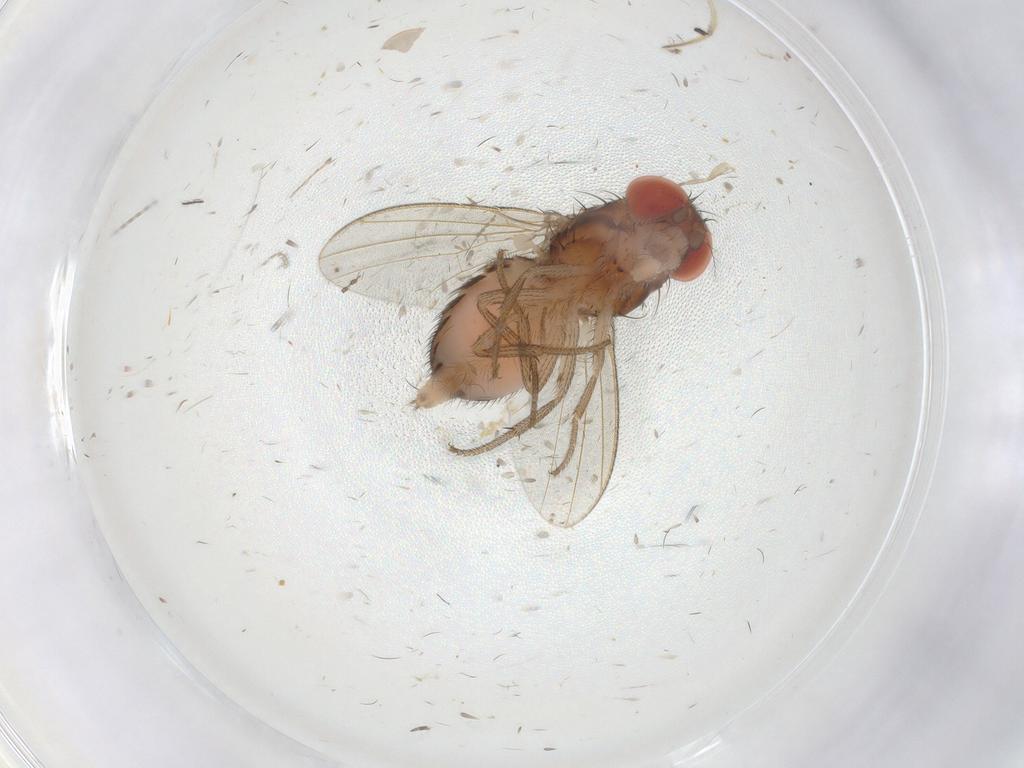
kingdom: Animalia
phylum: Arthropoda
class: Insecta
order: Diptera
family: Drosophilidae
